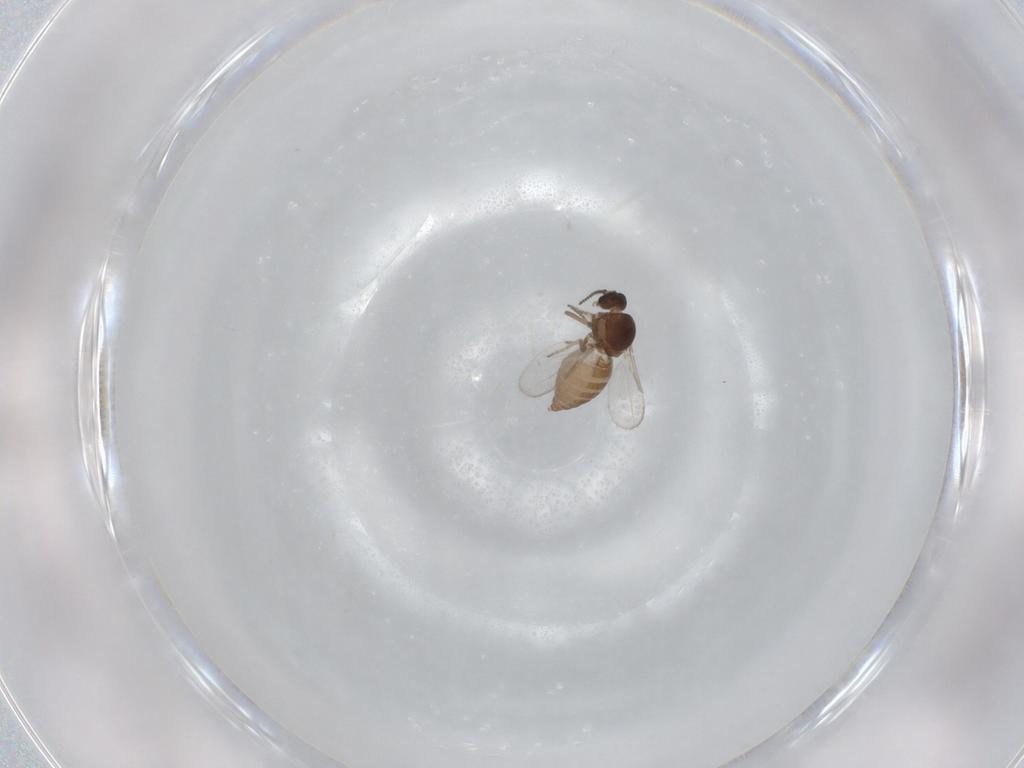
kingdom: Animalia
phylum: Arthropoda
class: Insecta
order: Diptera
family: Ceratopogonidae
